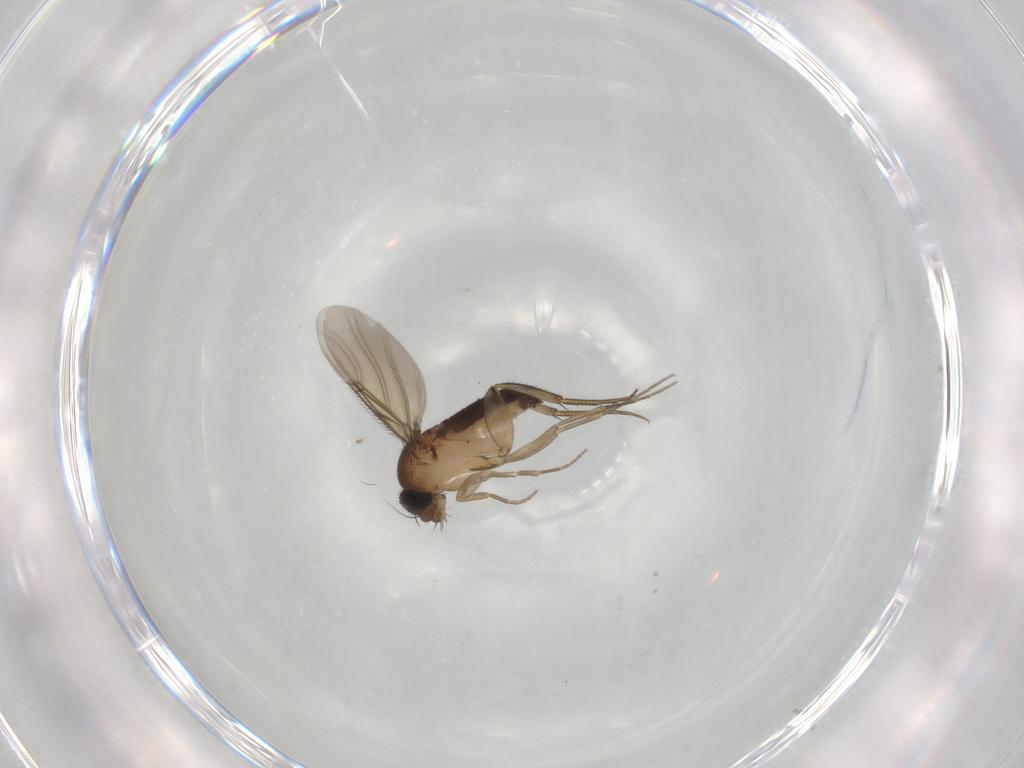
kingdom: Animalia
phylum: Arthropoda
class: Insecta
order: Diptera
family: Phoridae
